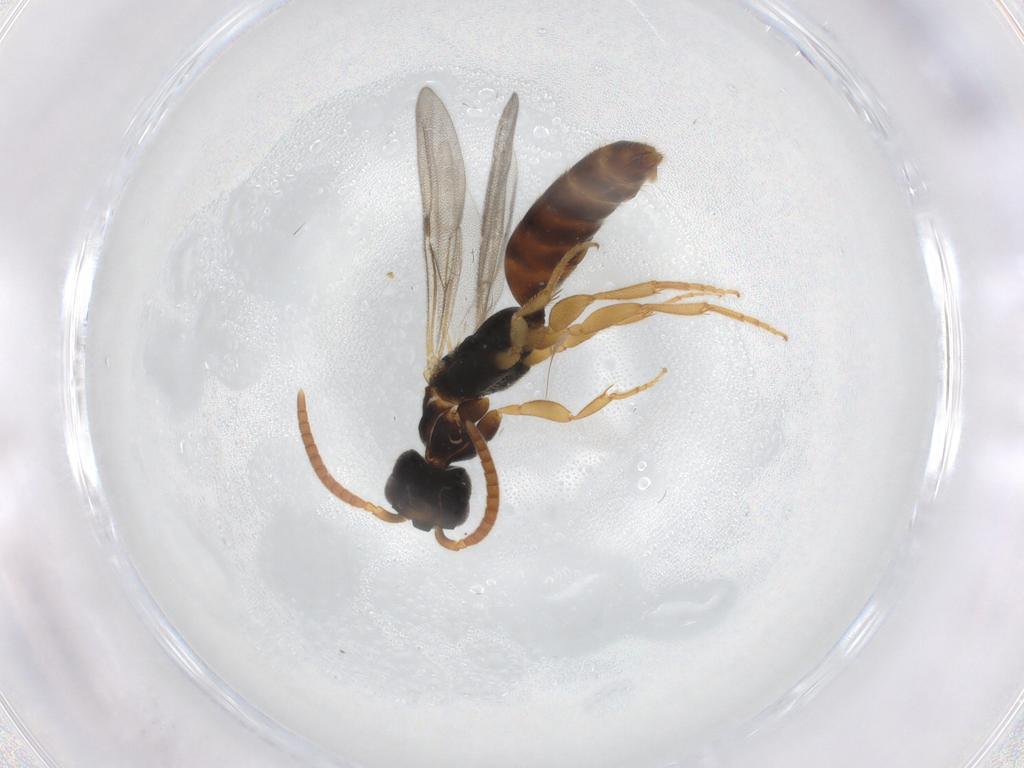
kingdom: Animalia
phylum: Arthropoda
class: Insecta
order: Hymenoptera
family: Bethylidae
